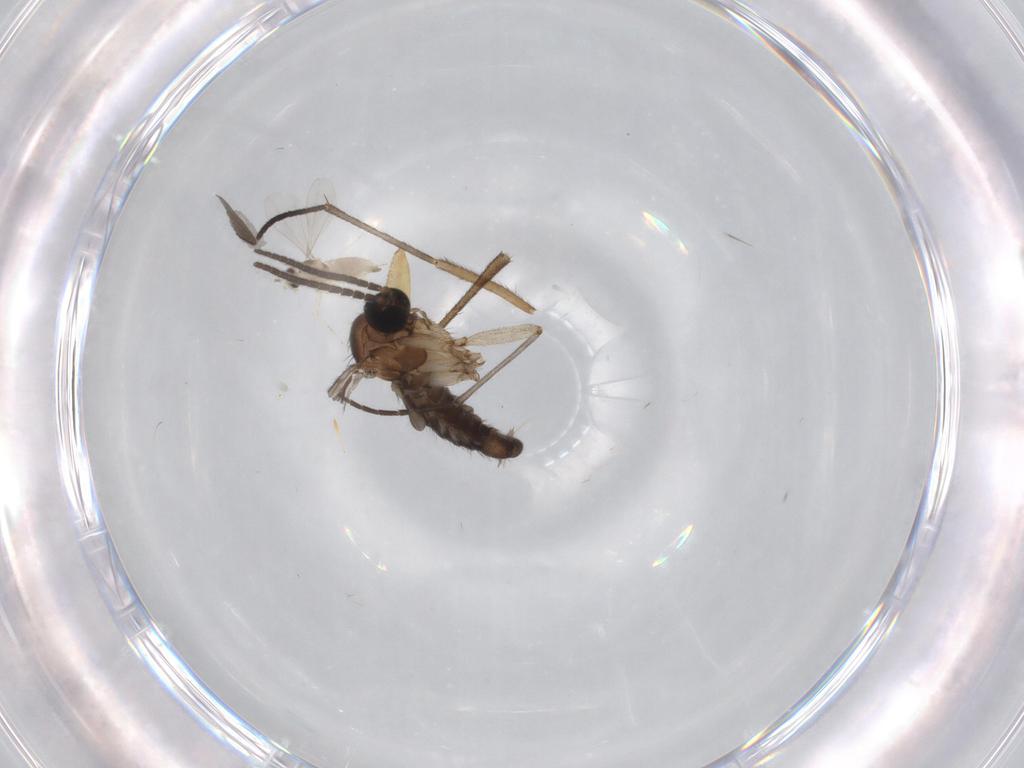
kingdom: Animalia
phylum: Arthropoda
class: Insecta
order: Diptera
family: Sciaridae
